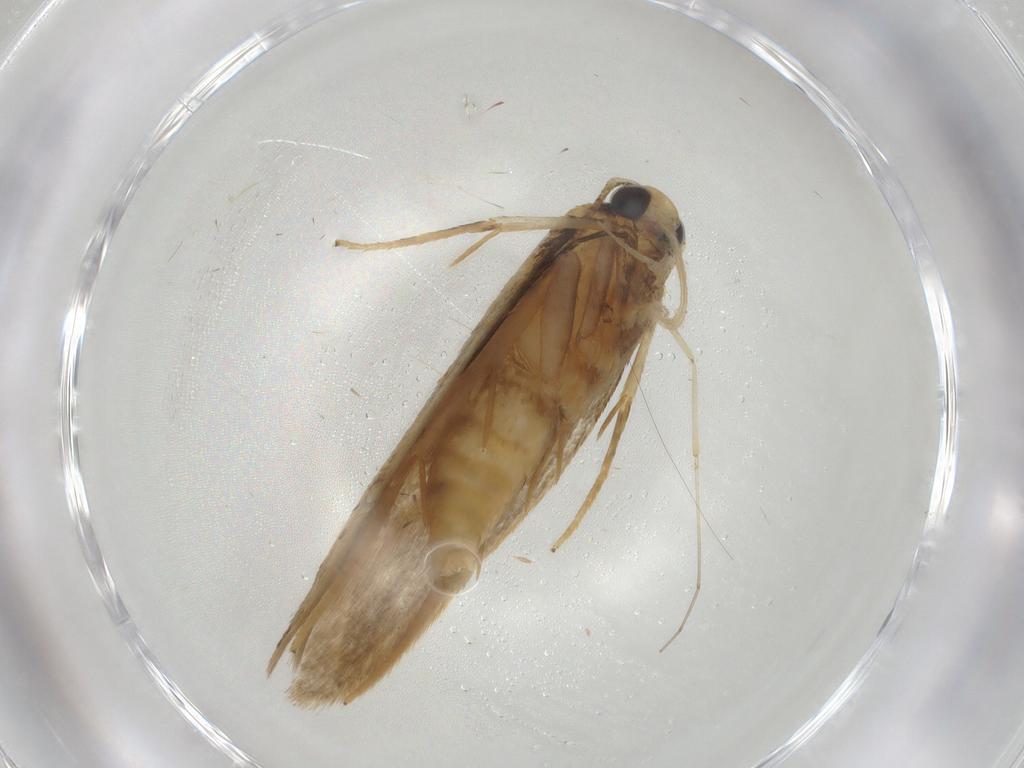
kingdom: Animalia
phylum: Arthropoda
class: Insecta
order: Lepidoptera
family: Oecophoridae
